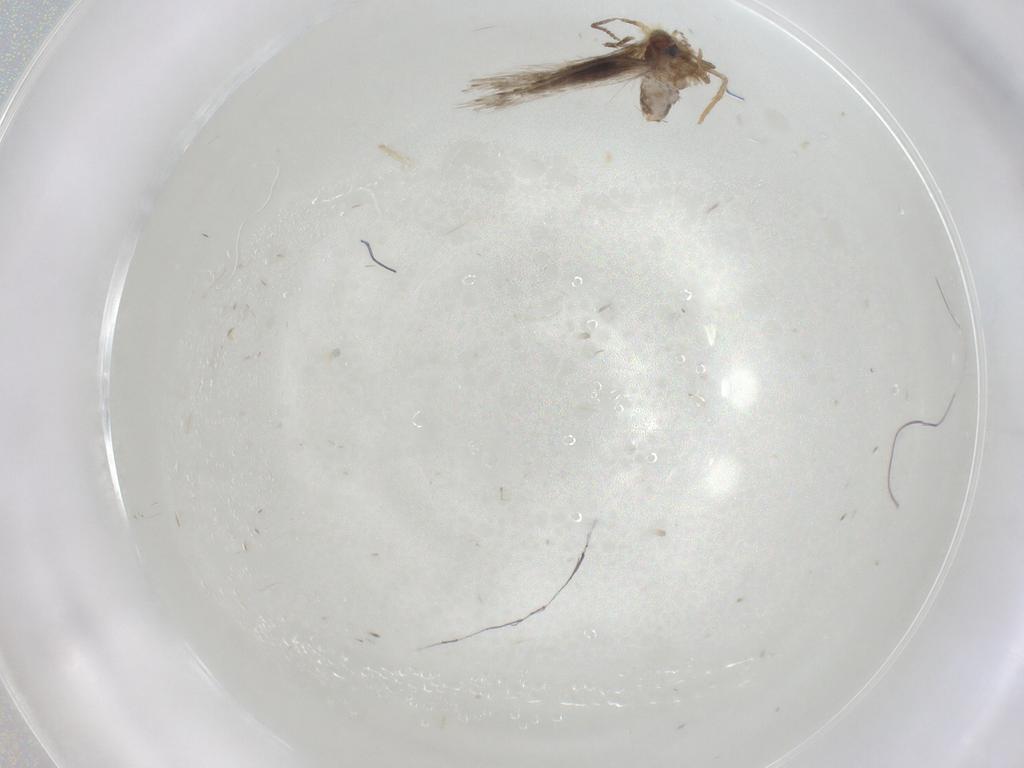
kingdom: Animalia
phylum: Arthropoda
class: Insecta
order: Lepidoptera
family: Nepticulidae
